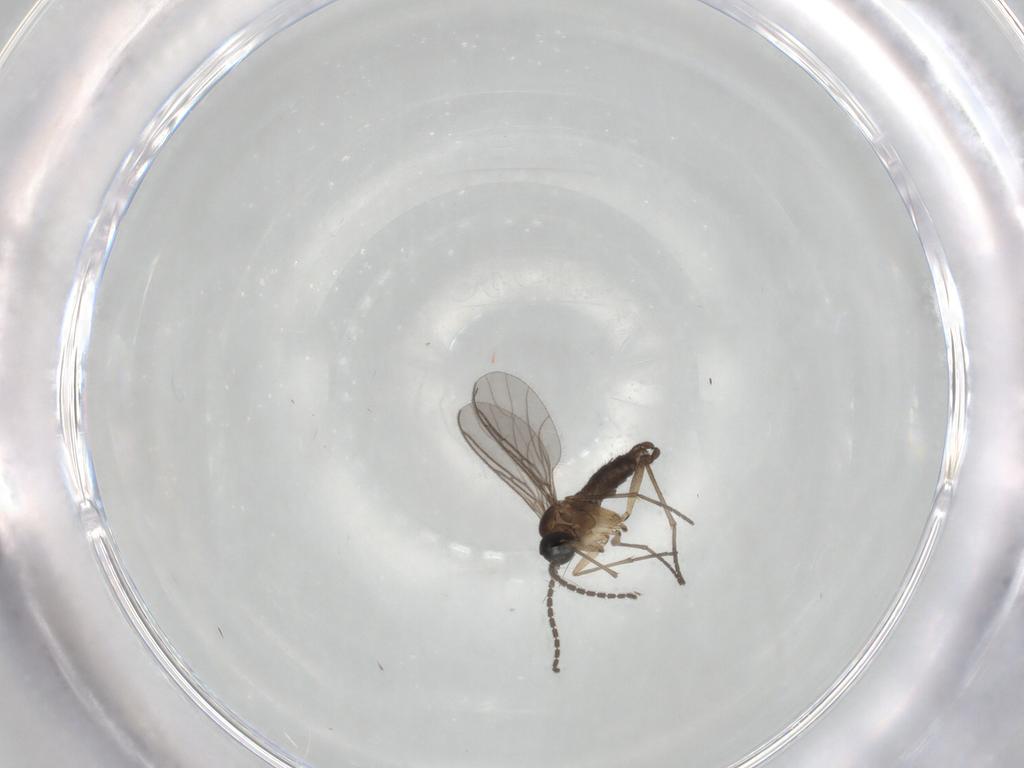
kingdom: Animalia
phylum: Arthropoda
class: Insecta
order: Diptera
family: Sciaridae
